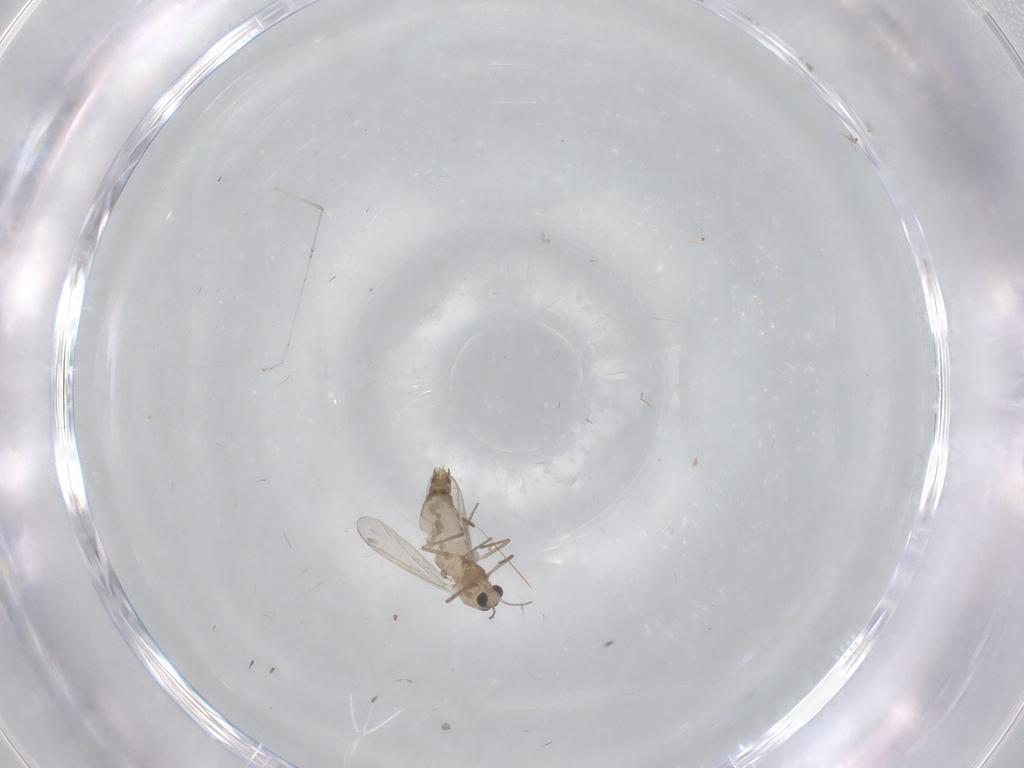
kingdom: Animalia
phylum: Arthropoda
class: Insecta
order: Diptera
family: Chironomidae
